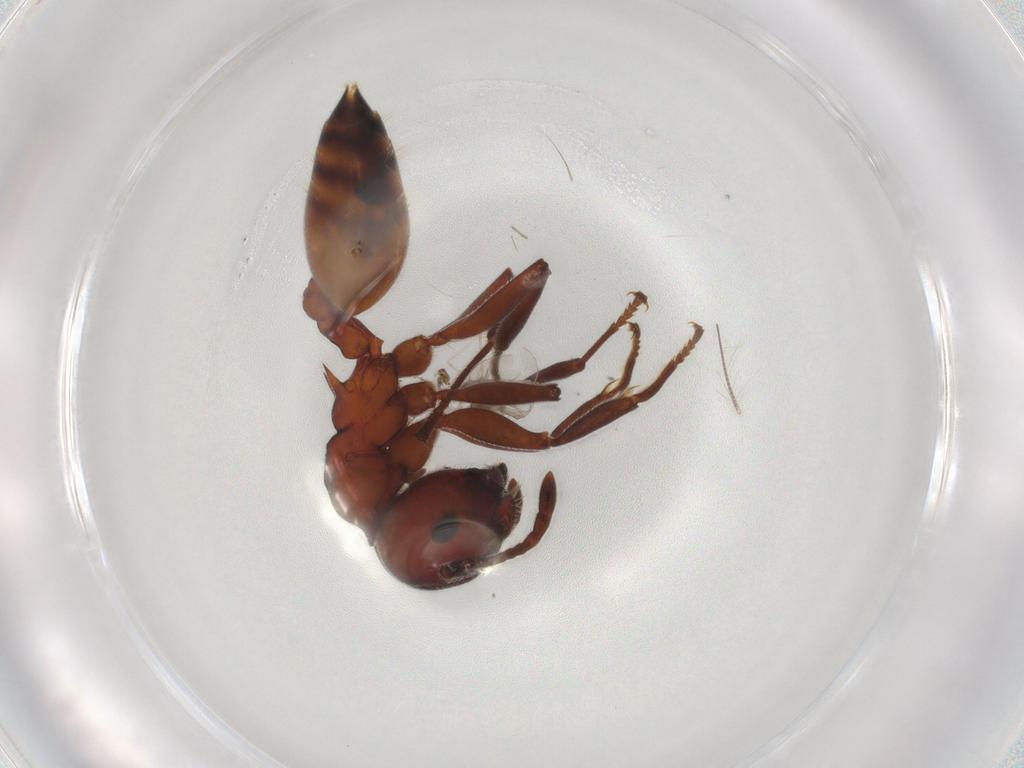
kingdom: Animalia
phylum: Arthropoda
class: Insecta
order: Hymenoptera
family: Formicidae
